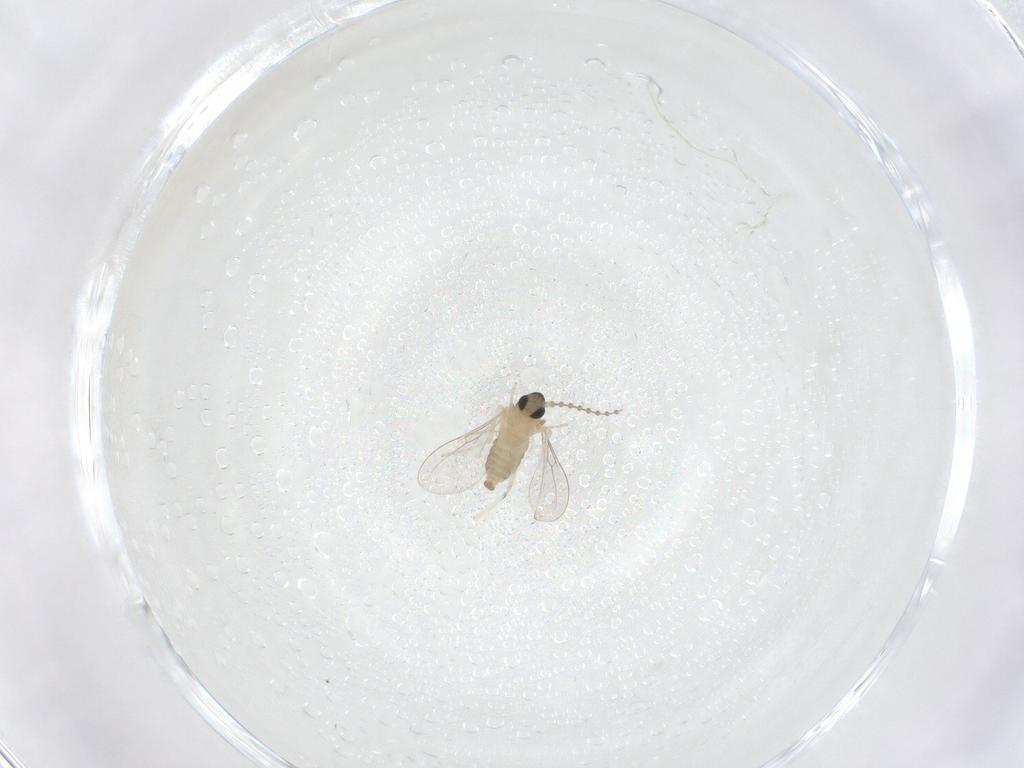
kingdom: Animalia
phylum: Arthropoda
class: Insecta
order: Diptera
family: Cecidomyiidae
